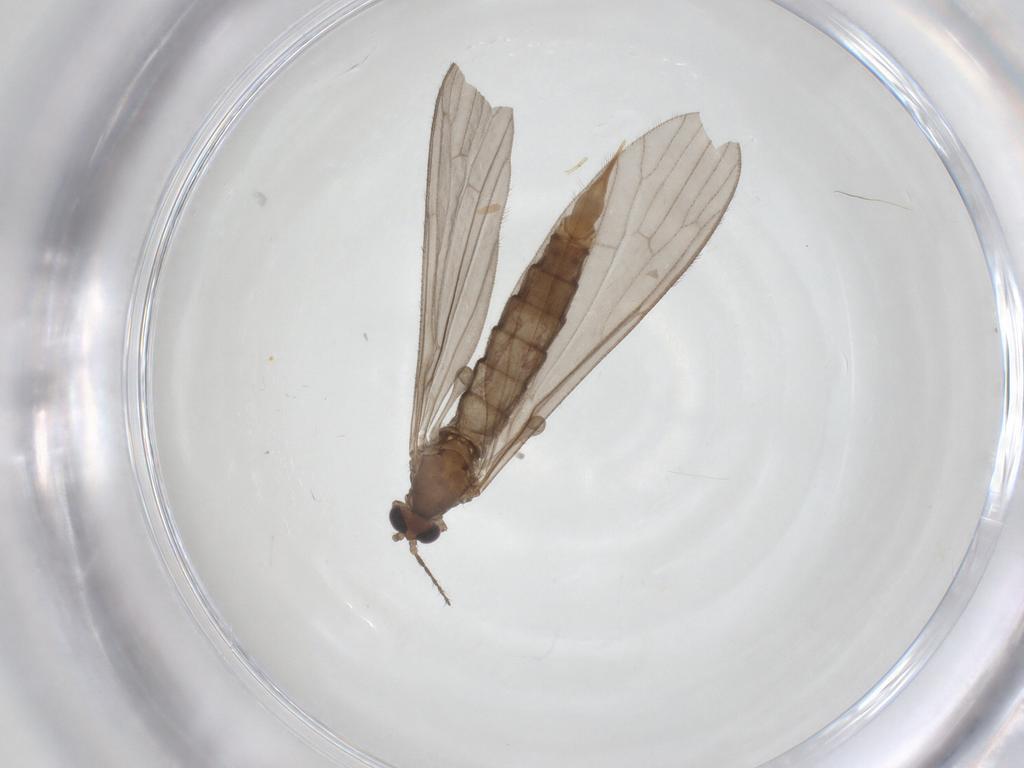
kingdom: Animalia
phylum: Arthropoda
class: Insecta
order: Diptera
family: Limoniidae
